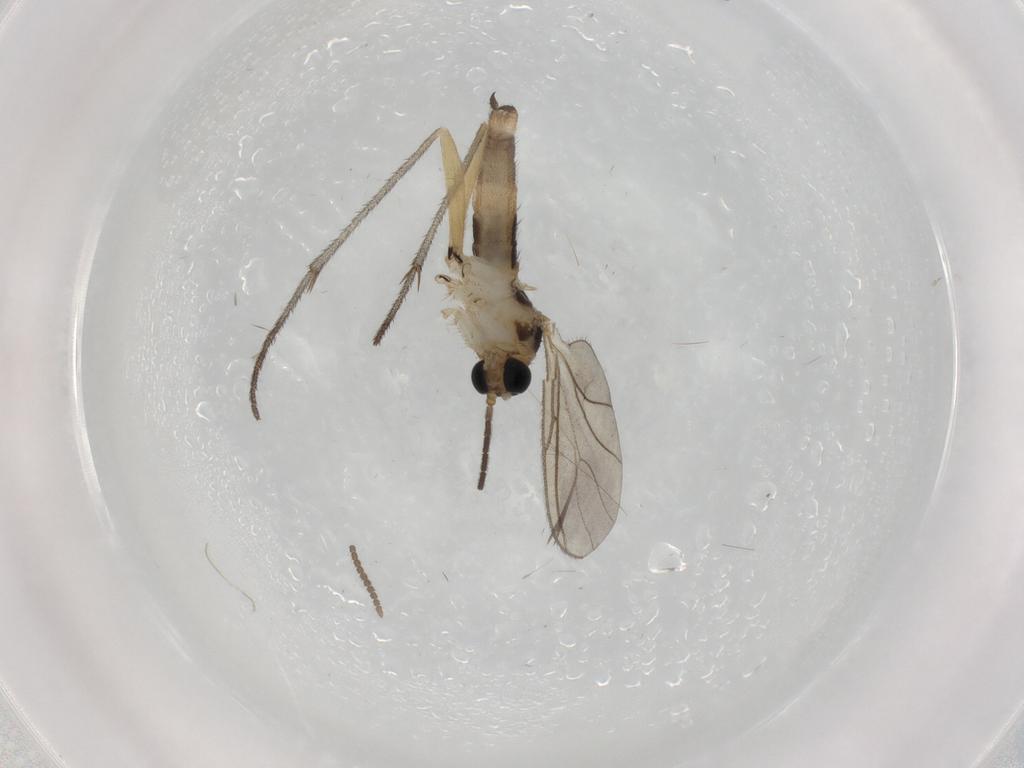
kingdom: Animalia
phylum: Arthropoda
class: Insecta
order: Diptera
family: Sciaridae
